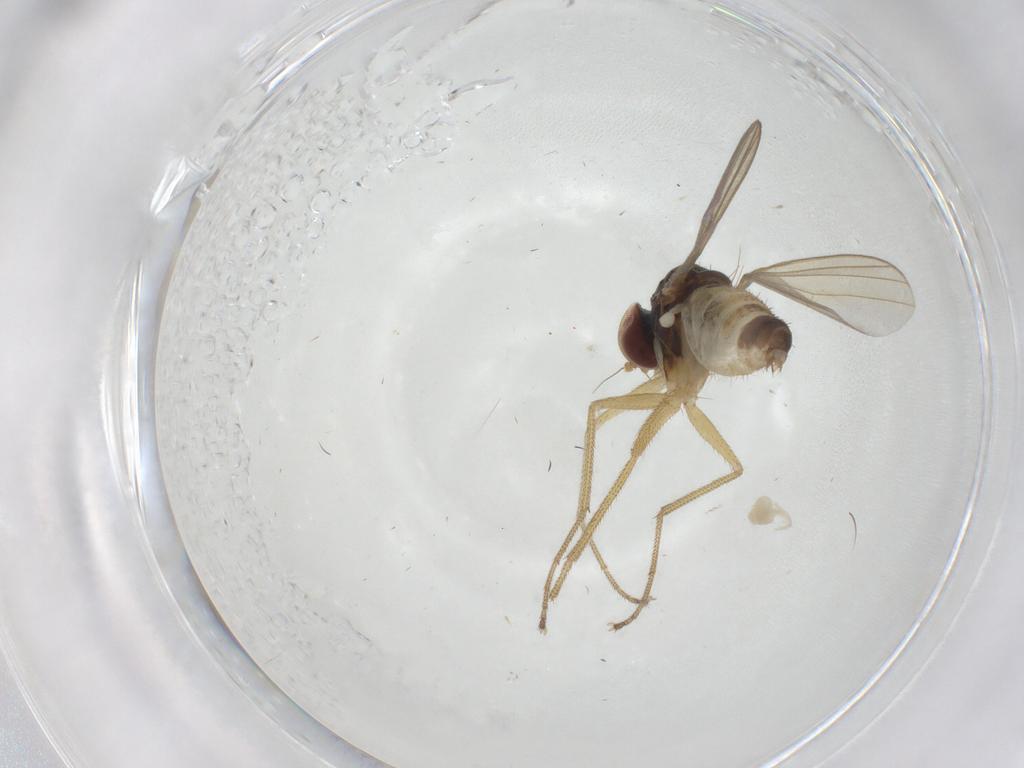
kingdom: Animalia
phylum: Arthropoda
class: Insecta
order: Diptera
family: Dolichopodidae
